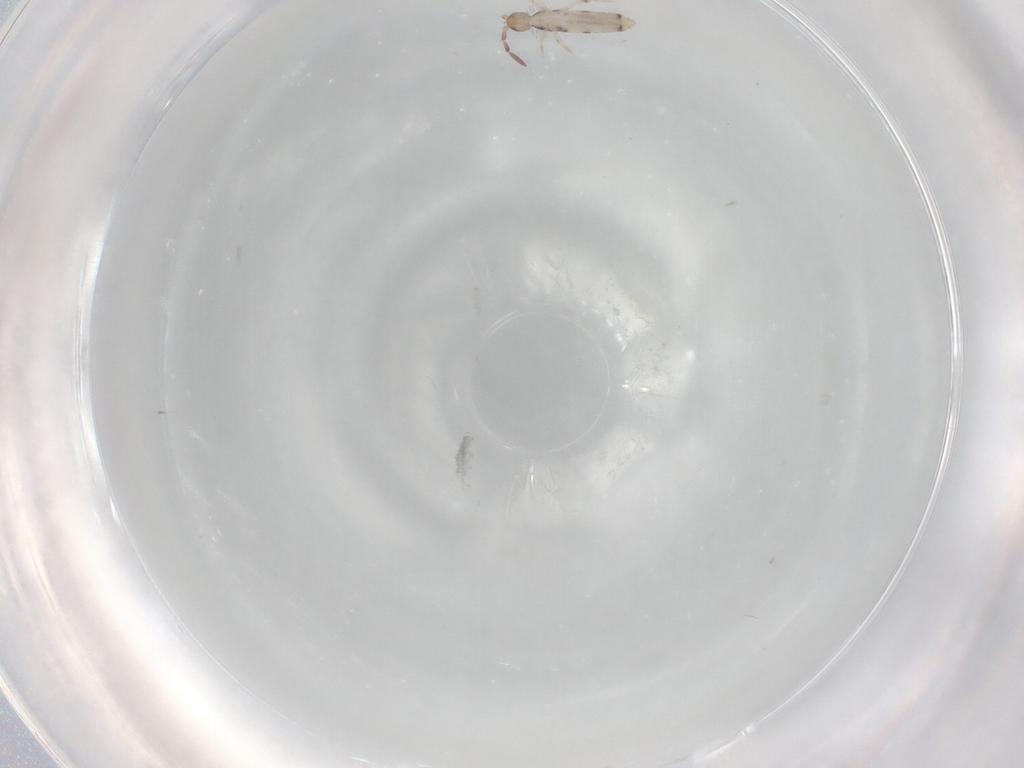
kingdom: Animalia
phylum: Arthropoda
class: Collembola
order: Entomobryomorpha
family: Entomobryidae
